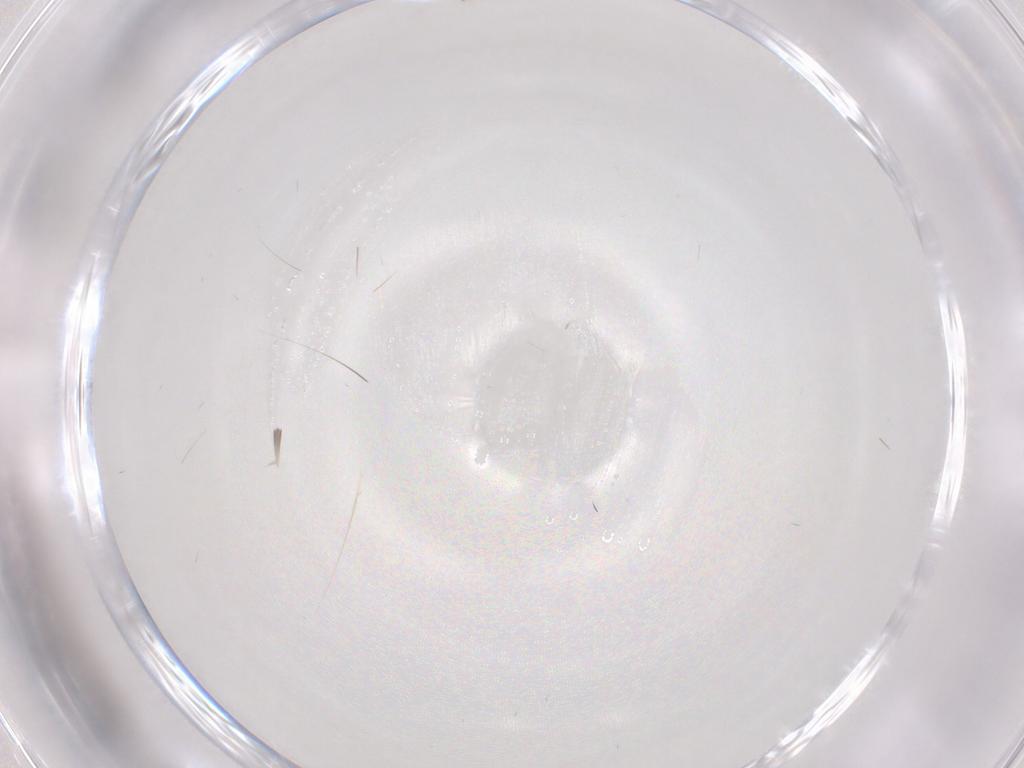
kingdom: Animalia
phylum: Arthropoda
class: Insecta
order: Diptera
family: Cecidomyiidae
